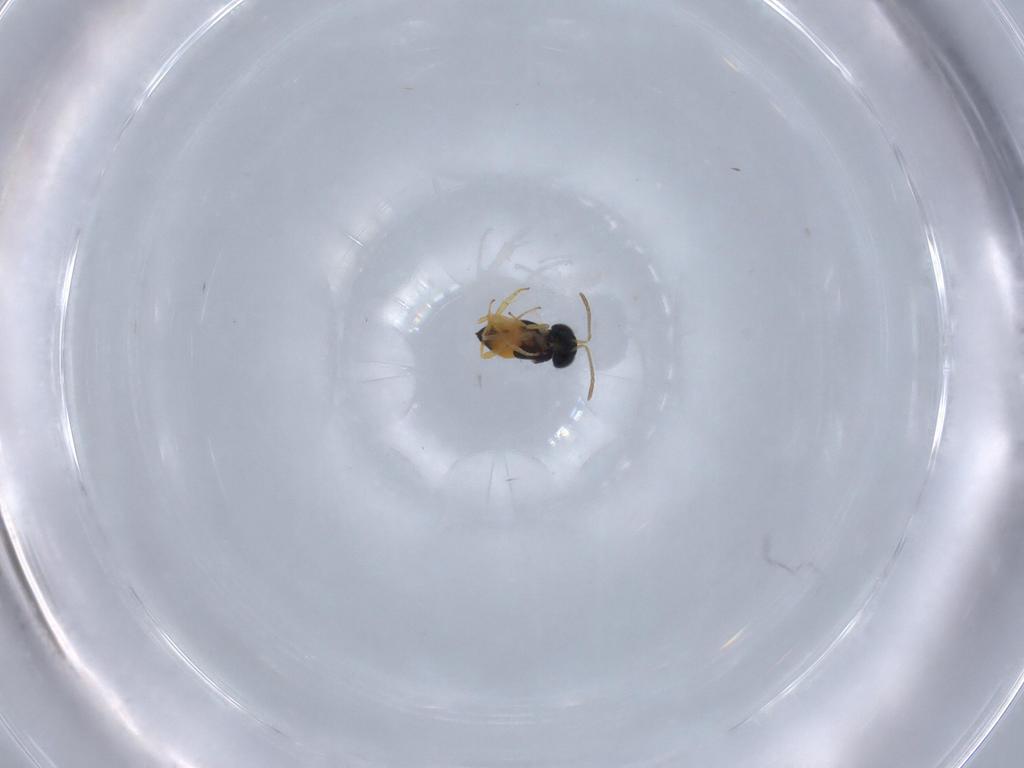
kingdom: Animalia
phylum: Arthropoda
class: Insecta
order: Hymenoptera
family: Encyrtidae
